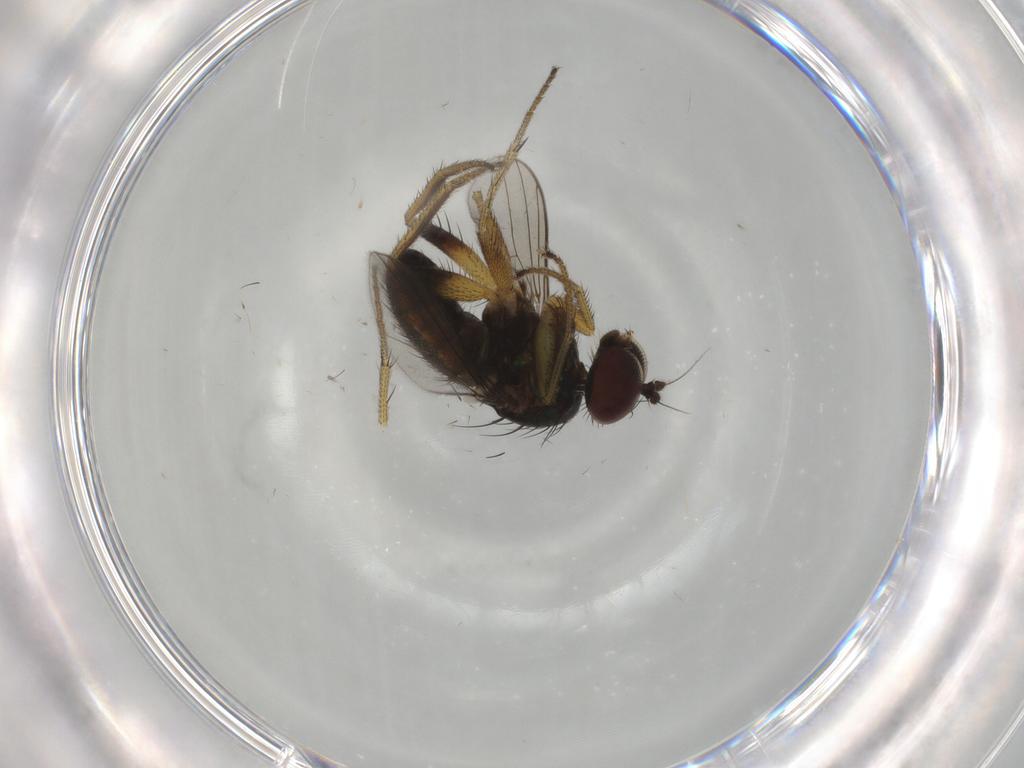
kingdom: Animalia
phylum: Arthropoda
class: Insecta
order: Diptera
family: Dolichopodidae
